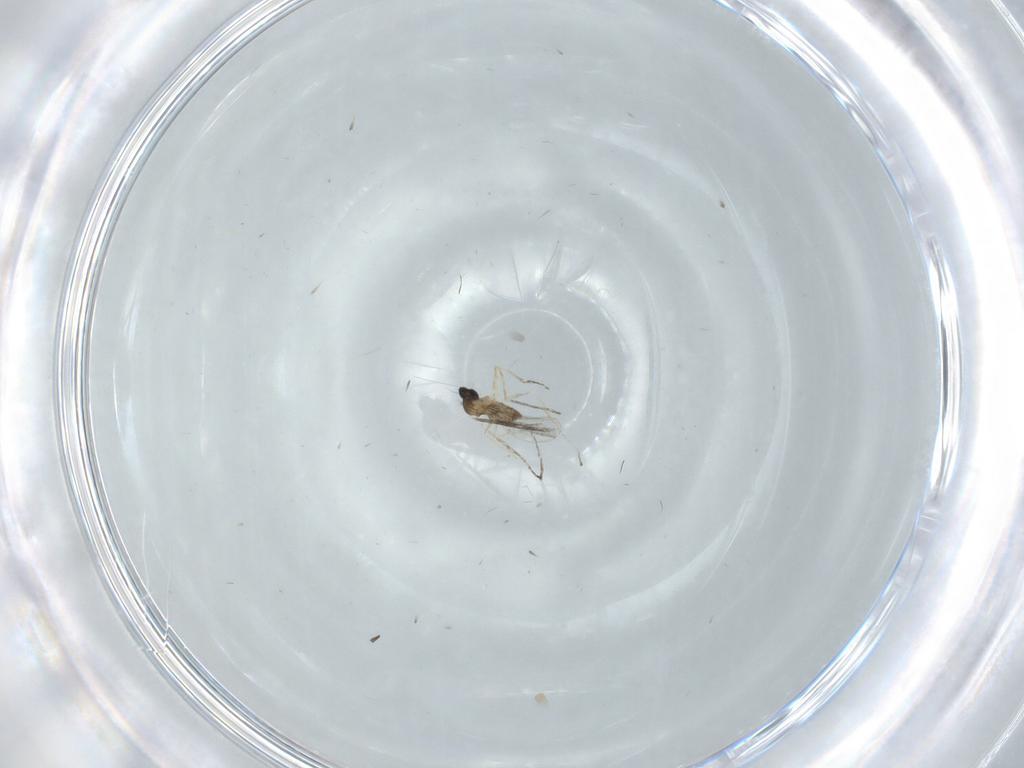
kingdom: Animalia
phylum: Arthropoda
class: Insecta
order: Diptera
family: Cecidomyiidae
